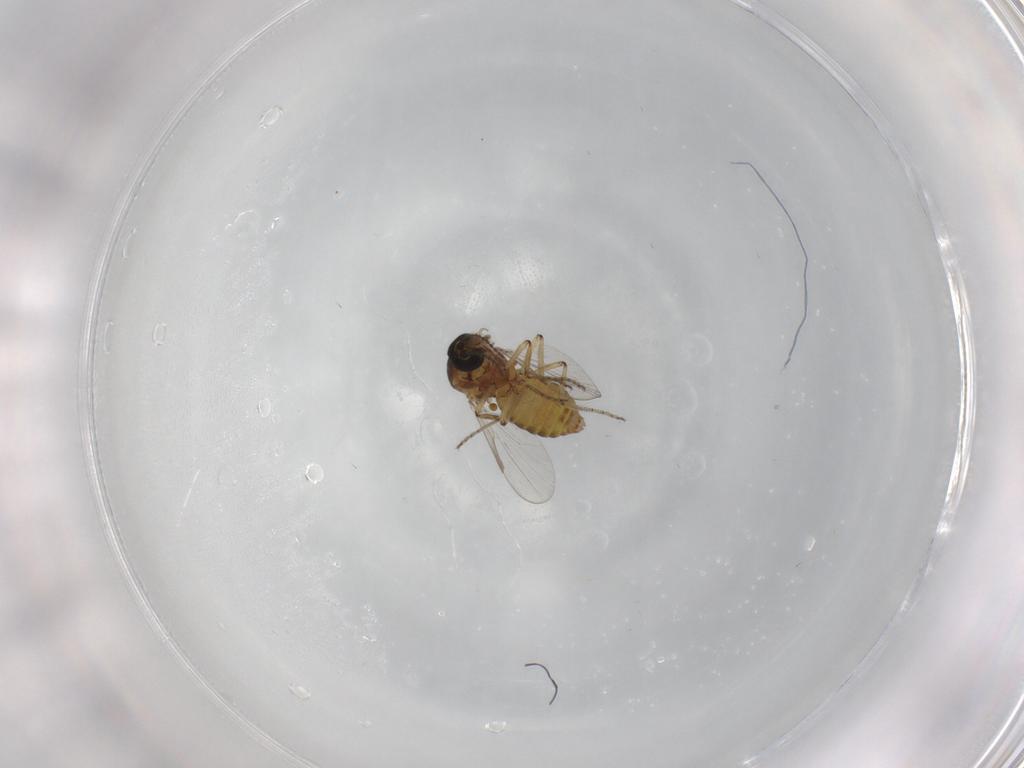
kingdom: Animalia
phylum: Arthropoda
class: Insecta
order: Diptera
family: Ceratopogonidae
